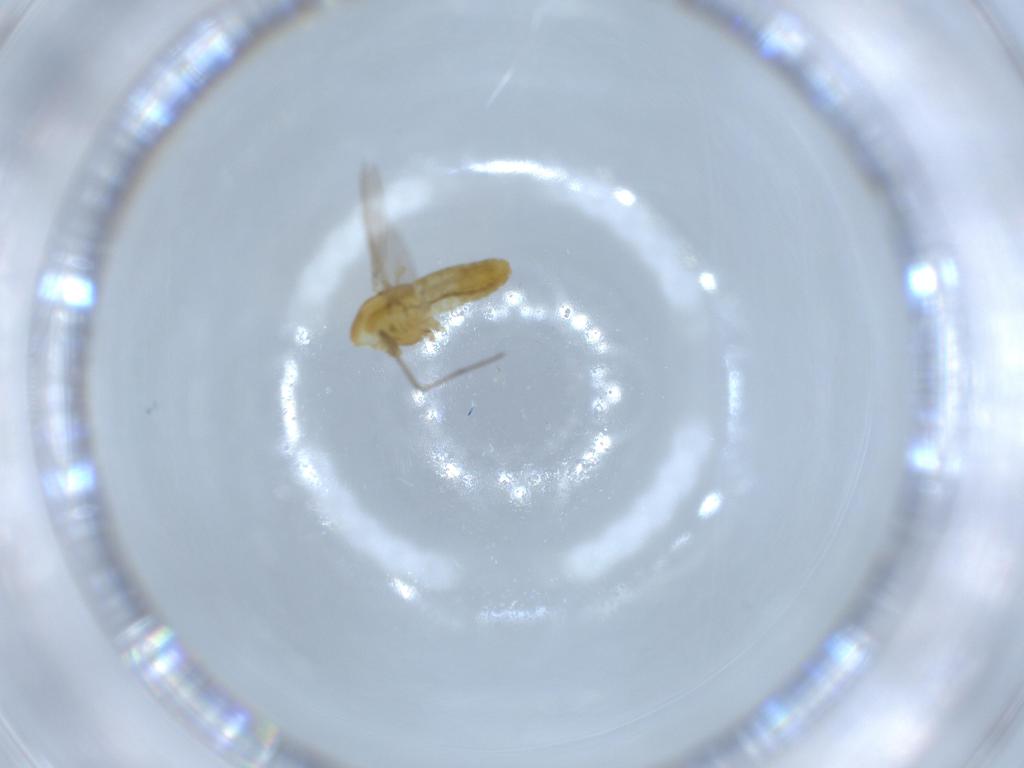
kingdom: Animalia
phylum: Arthropoda
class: Insecta
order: Diptera
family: Chironomidae
